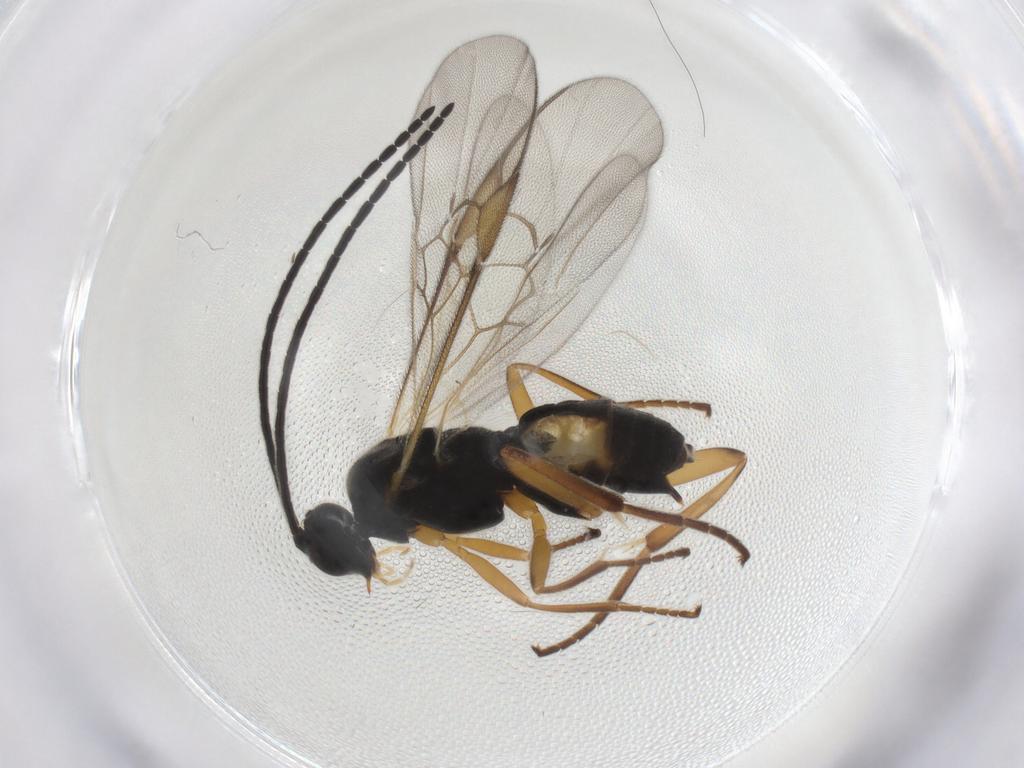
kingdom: Animalia
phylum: Arthropoda
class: Insecta
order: Hymenoptera
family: Braconidae
